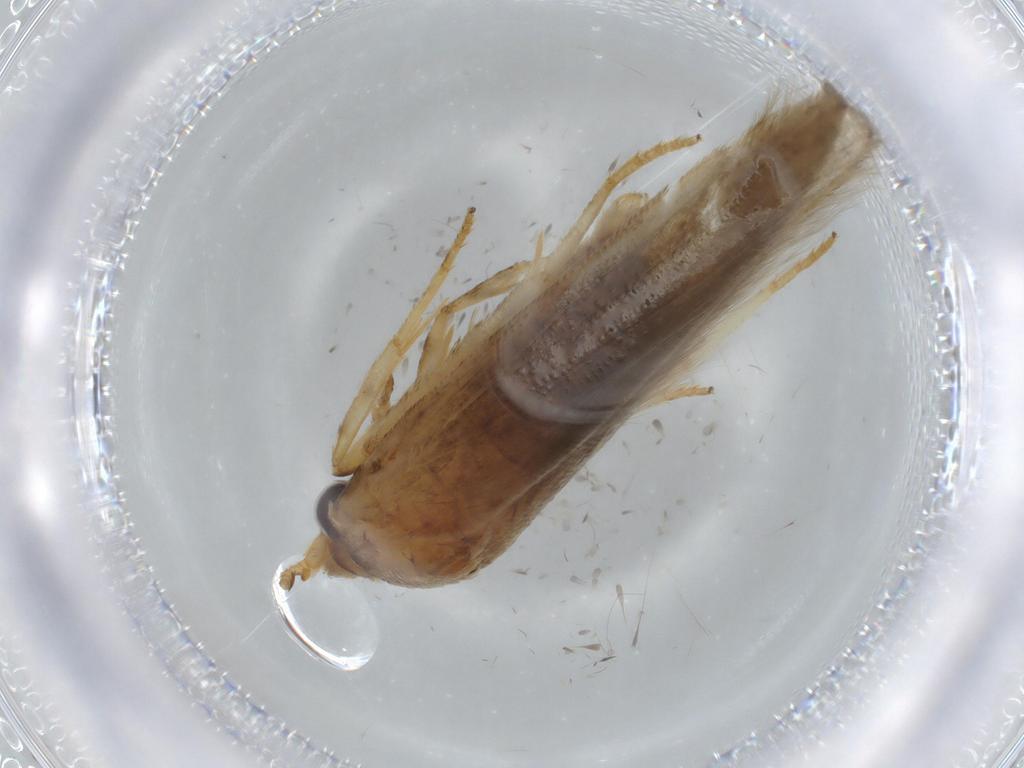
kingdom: Animalia
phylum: Arthropoda
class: Insecta
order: Lepidoptera
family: Blastobasidae
